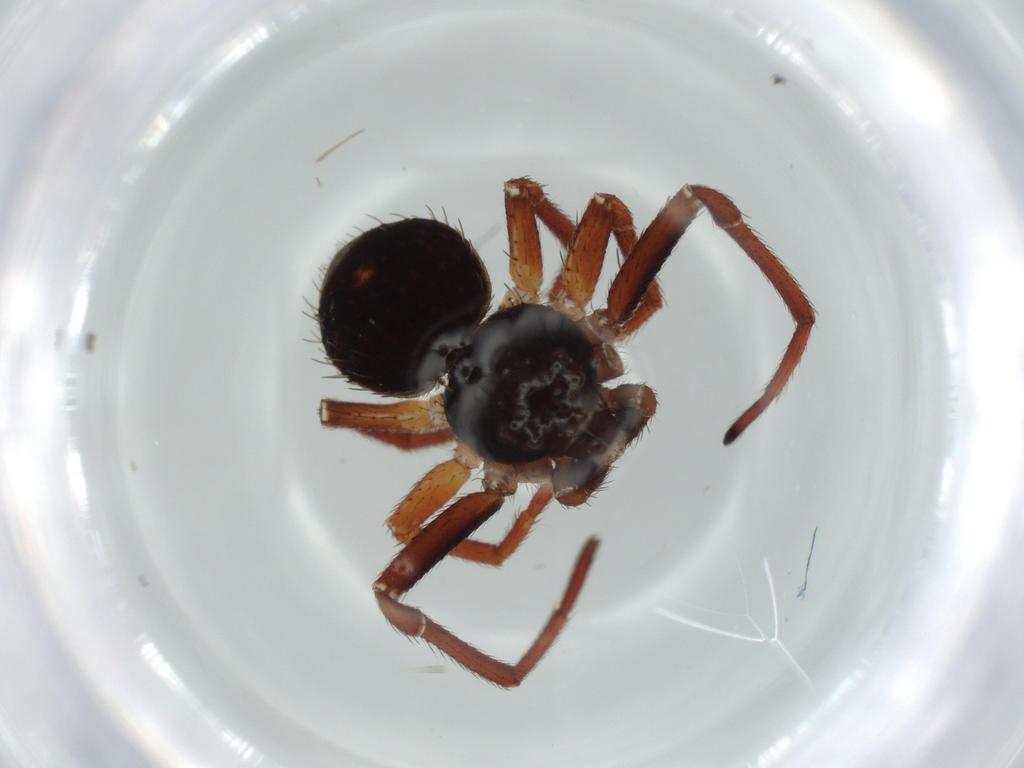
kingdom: Animalia
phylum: Arthropoda
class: Arachnida
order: Araneae
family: Thomisidae
